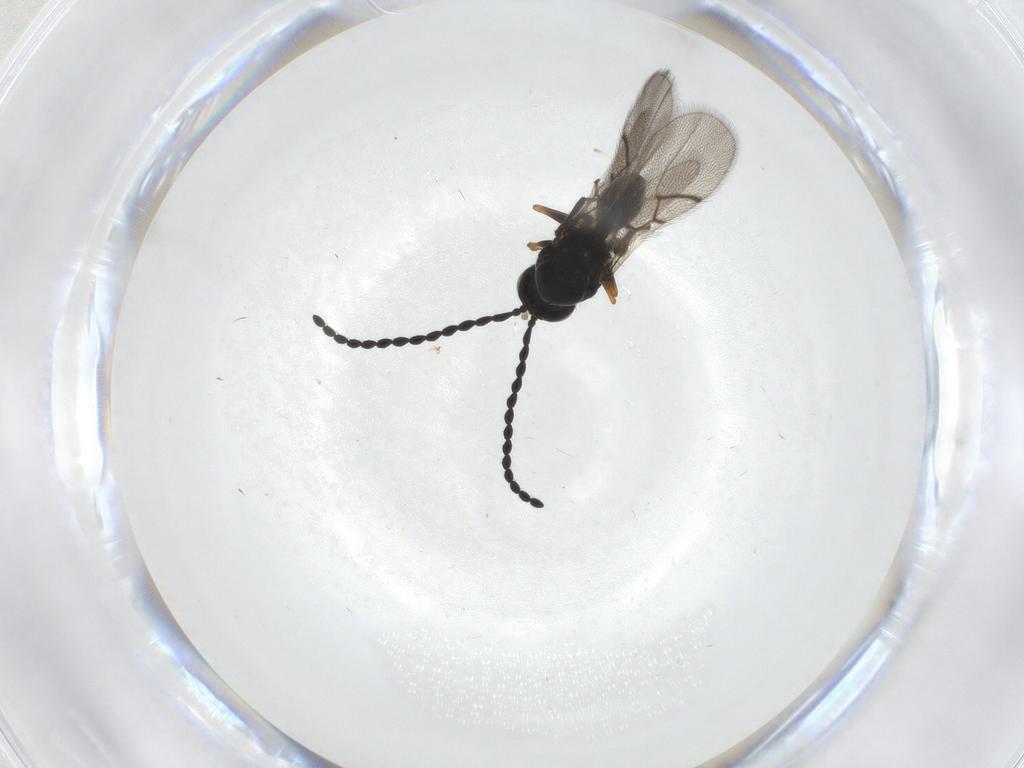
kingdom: Animalia
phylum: Arthropoda
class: Insecta
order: Hymenoptera
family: Figitidae
